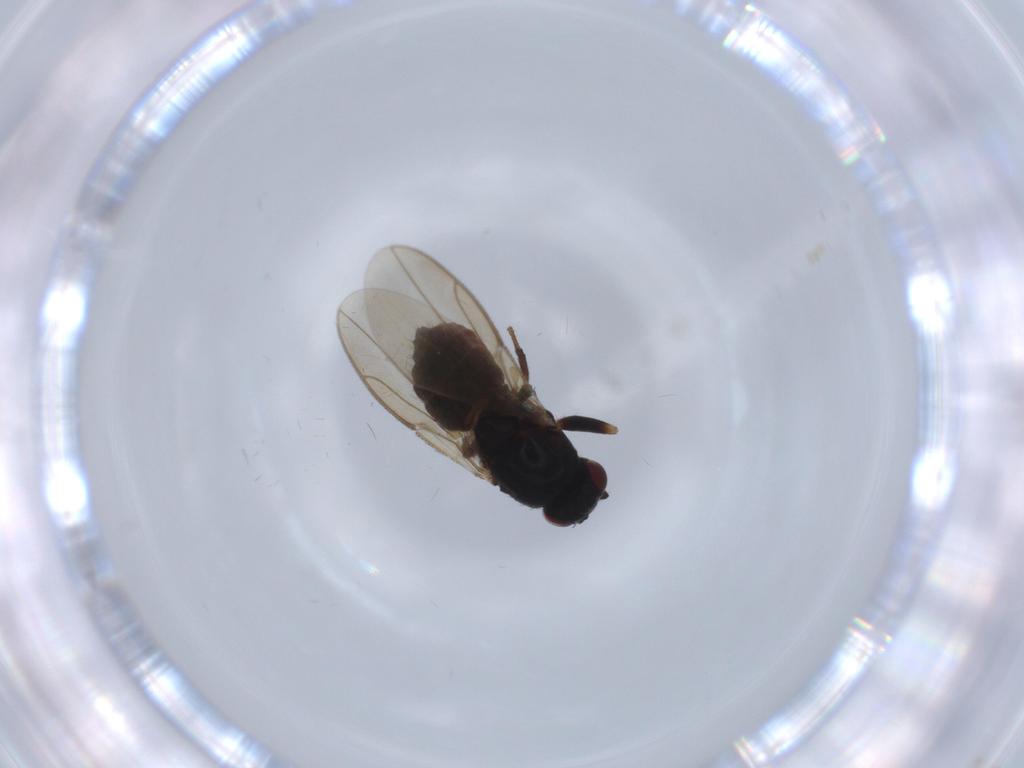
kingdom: Animalia
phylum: Arthropoda
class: Insecta
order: Diptera
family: Sphaeroceridae
